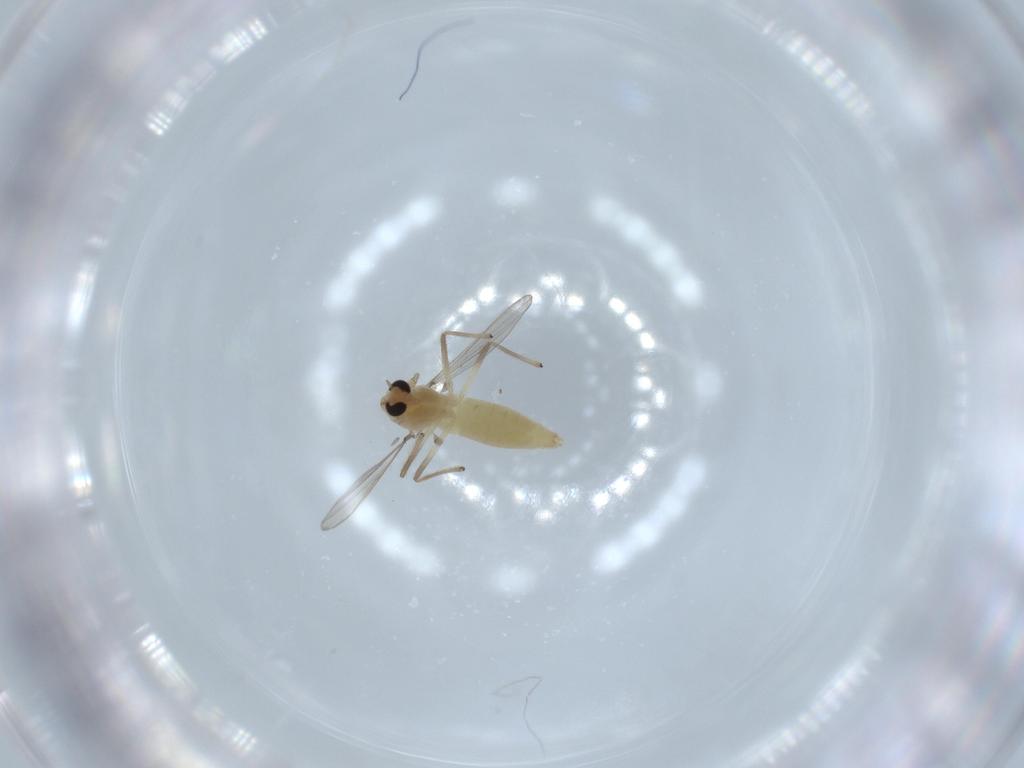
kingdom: Animalia
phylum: Arthropoda
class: Insecta
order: Diptera
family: Chironomidae
